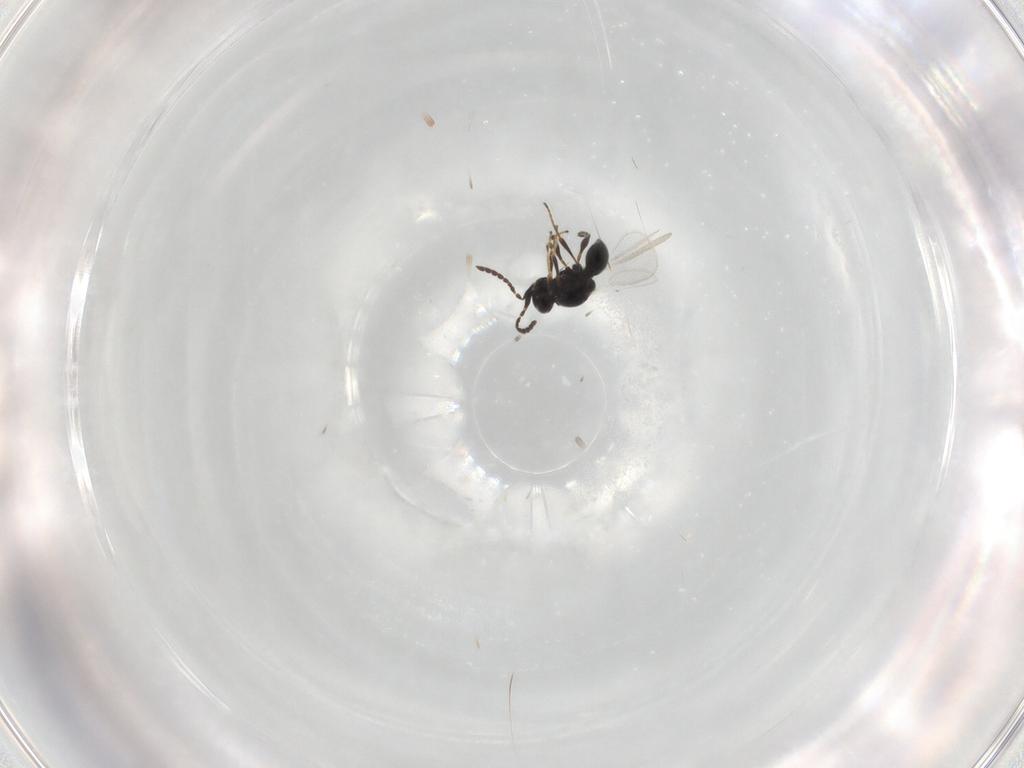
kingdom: Animalia
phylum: Arthropoda
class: Insecta
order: Hymenoptera
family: Platygastridae
